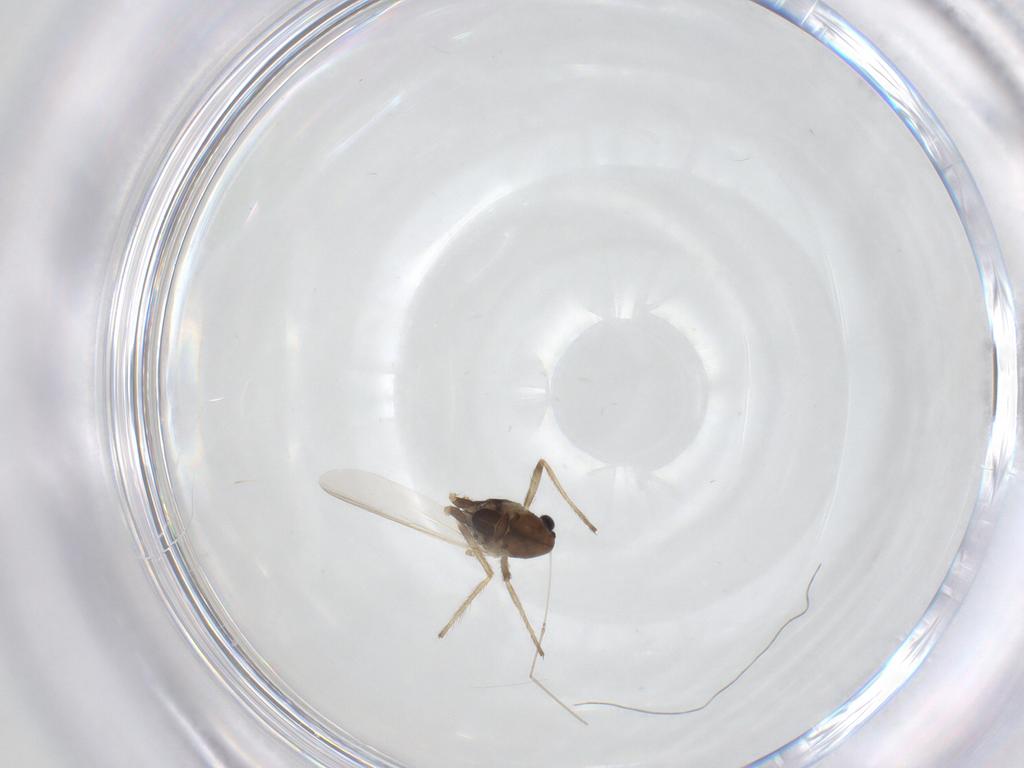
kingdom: Animalia
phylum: Arthropoda
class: Insecta
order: Diptera
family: Chironomidae
